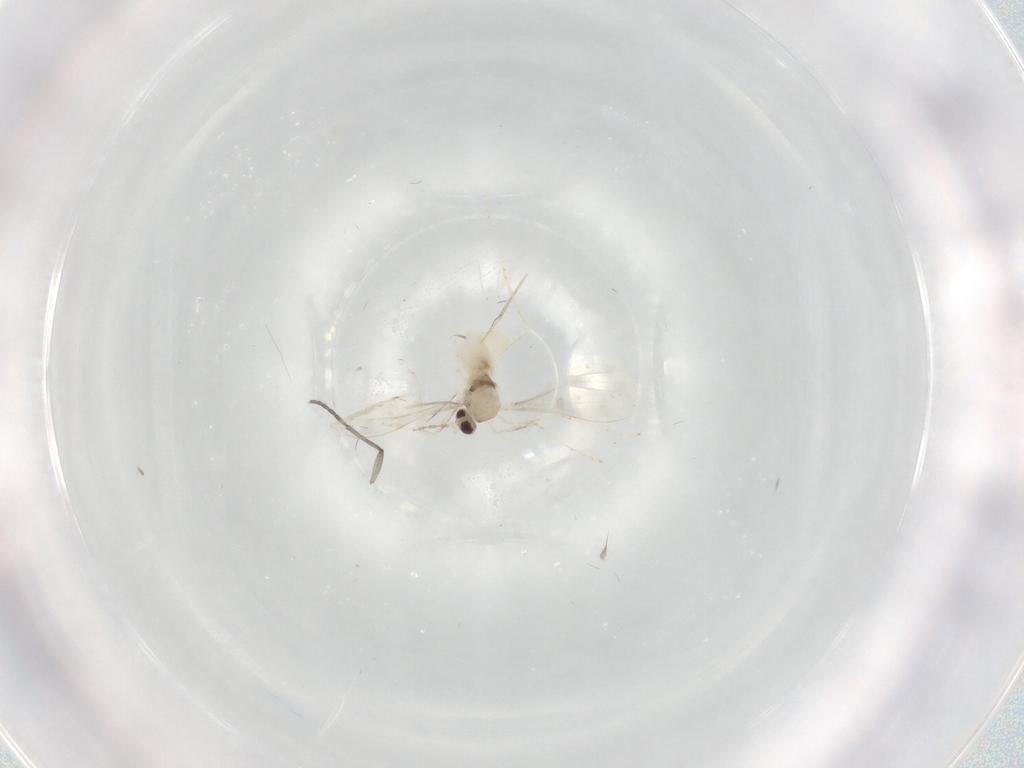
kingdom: Animalia
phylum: Arthropoda
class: Insecta
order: Diptera
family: Cecidomyiidae
